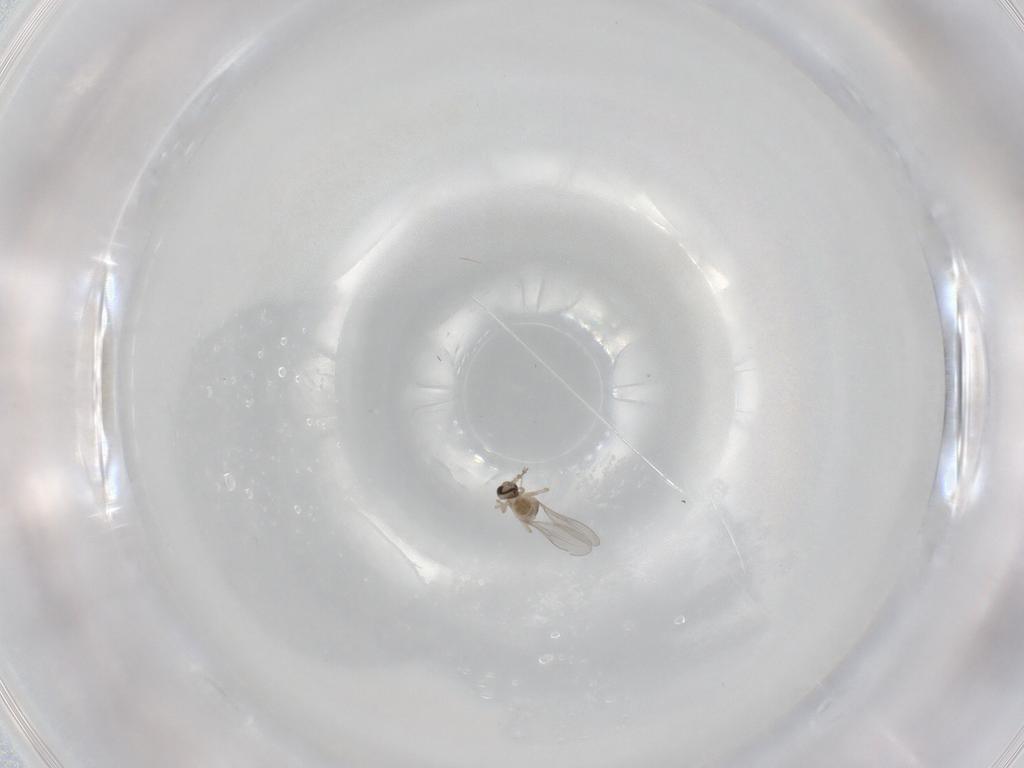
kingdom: Animalia
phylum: Arthropoda
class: Insecta
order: Diptera
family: Cecidomyiidae
